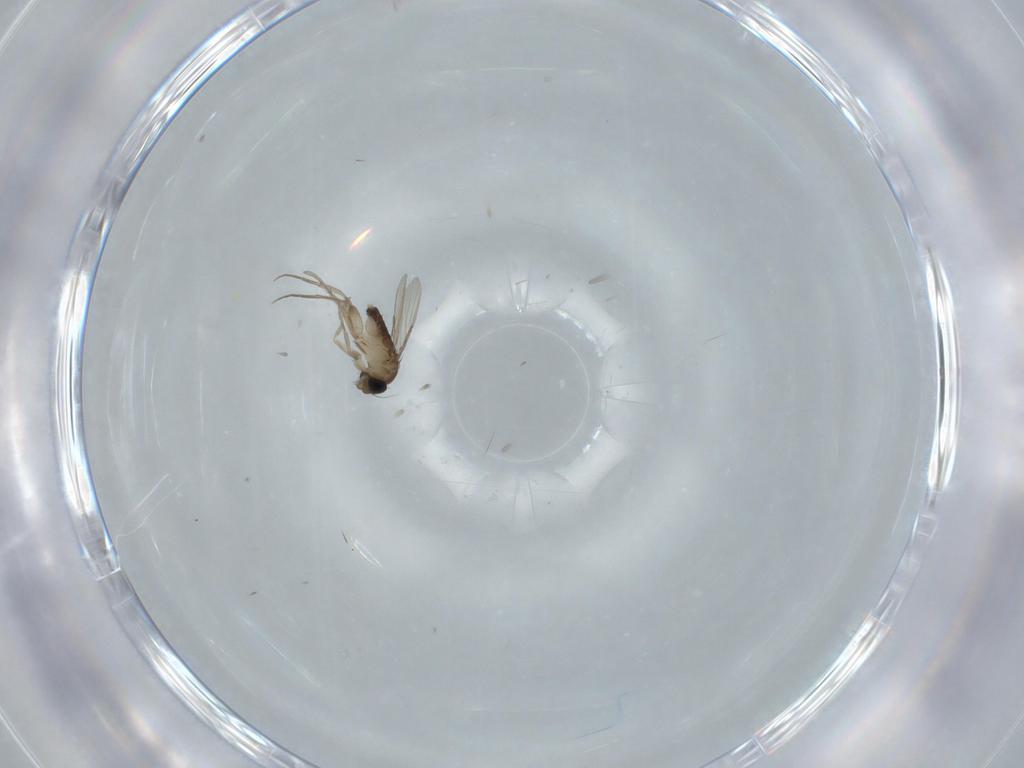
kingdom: Animalia
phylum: Arthropoda
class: Insecta
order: Diptera
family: Phoridae
